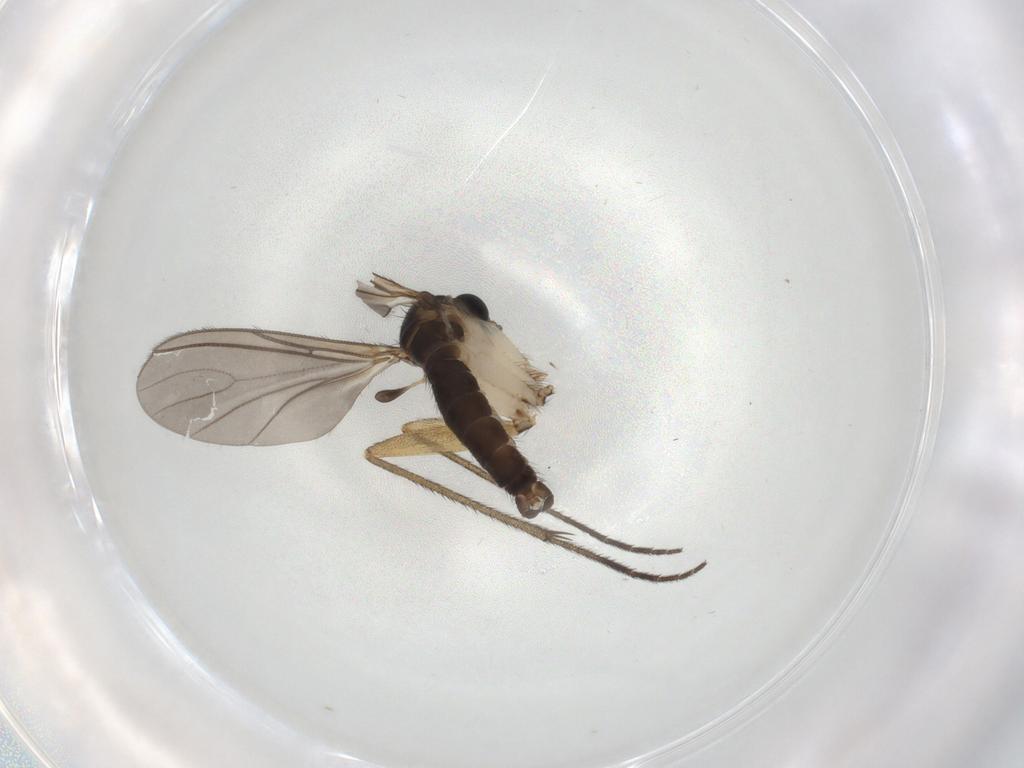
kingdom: Animalia
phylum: Arthropoda
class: Insecta
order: Diptera
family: Sciaridae
